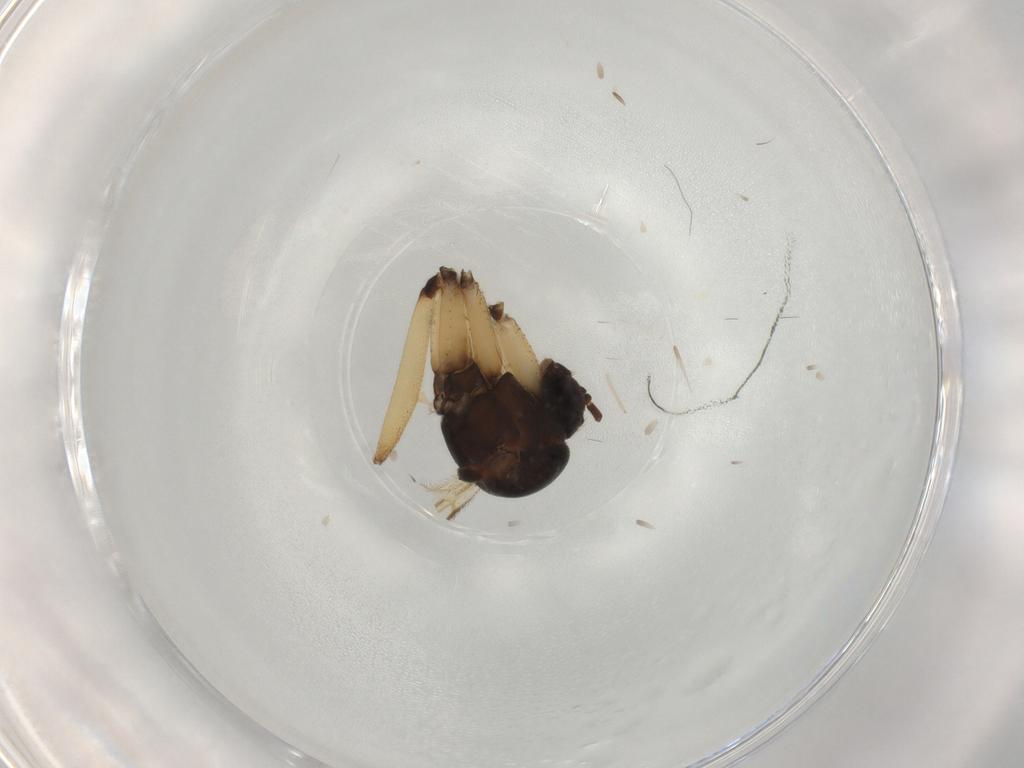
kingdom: Animalia
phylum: Arthropoda
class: Insecta
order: Diptera
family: Mycetophilidae
